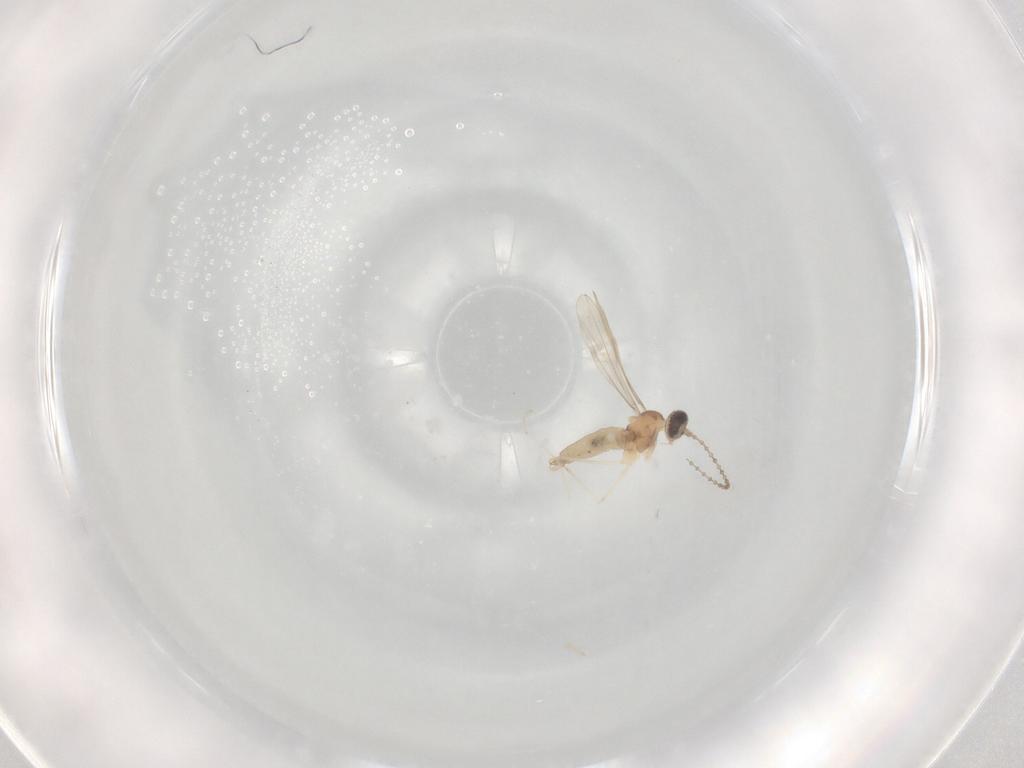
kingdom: Animalia
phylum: Arthropoda
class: Insecta
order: Diptera
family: Cecidomyiidae
